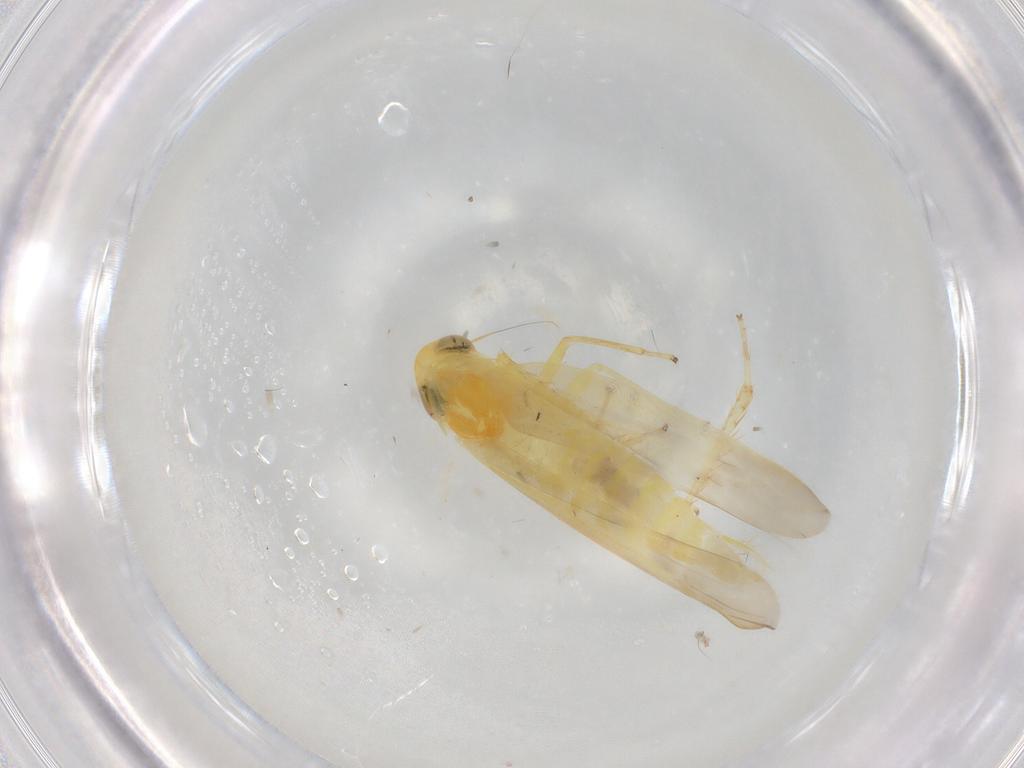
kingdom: Animalia
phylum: Arthropoda
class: Insecta
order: Hemiptera
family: Cicadellidae
